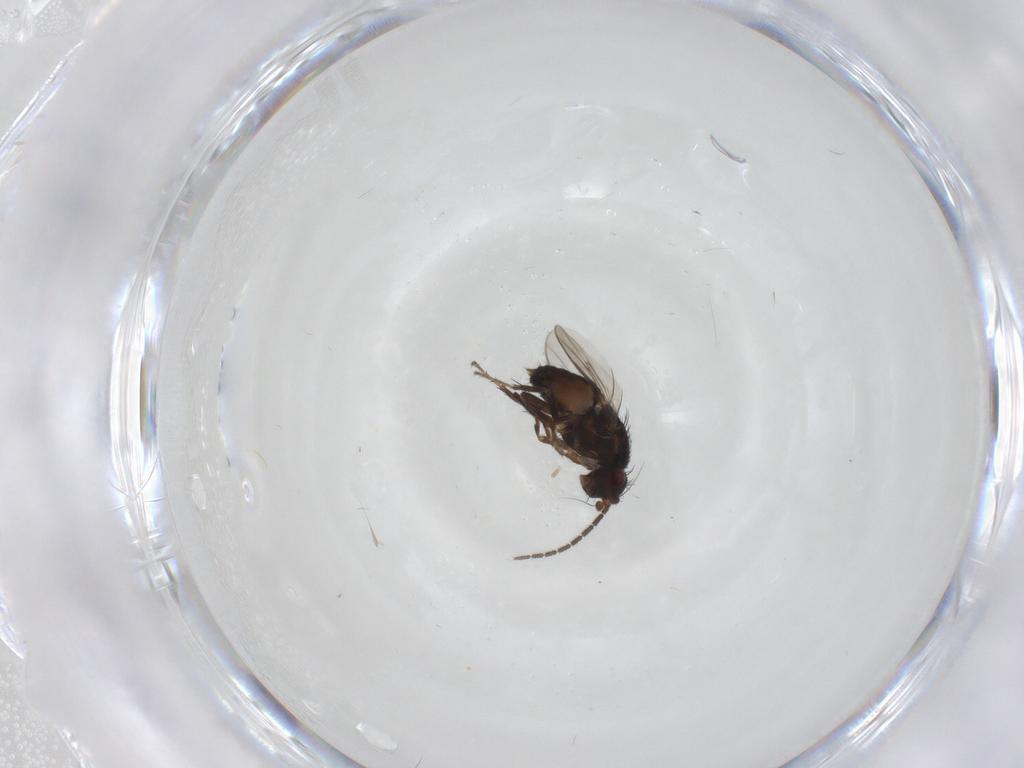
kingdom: Animalia
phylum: Arthropoda
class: Insecta
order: Diptera
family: Sphaeroceridae
